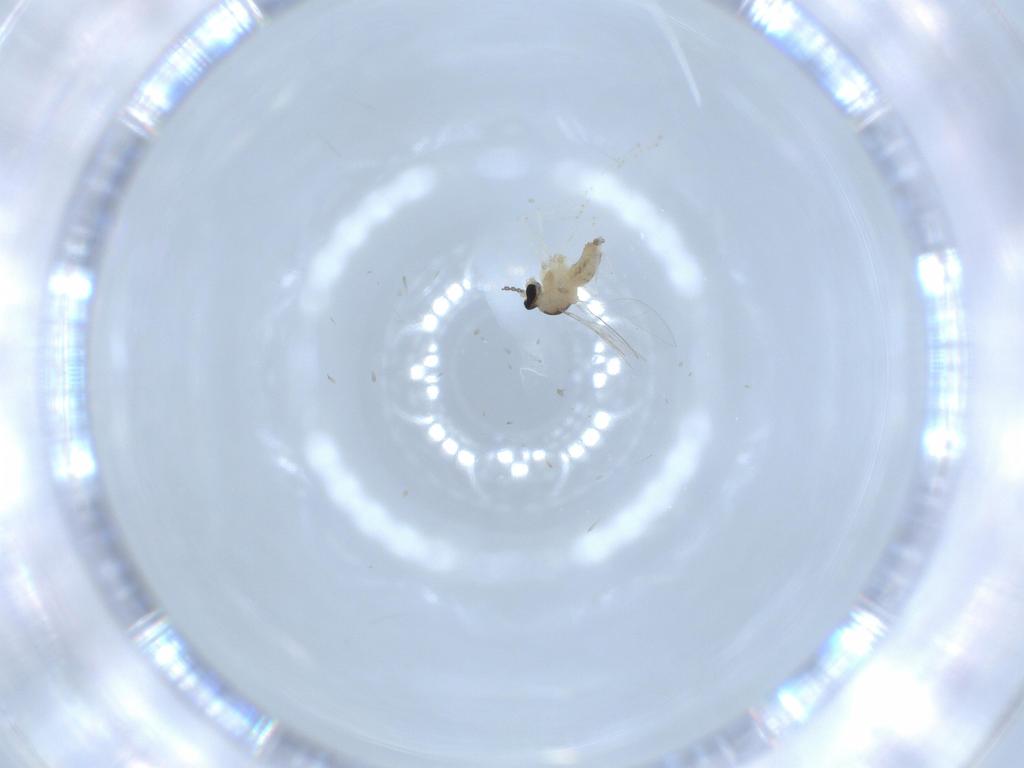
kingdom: Animalia
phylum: Arthropoda
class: Insecta
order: Diptera
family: Cecidomyiidae
